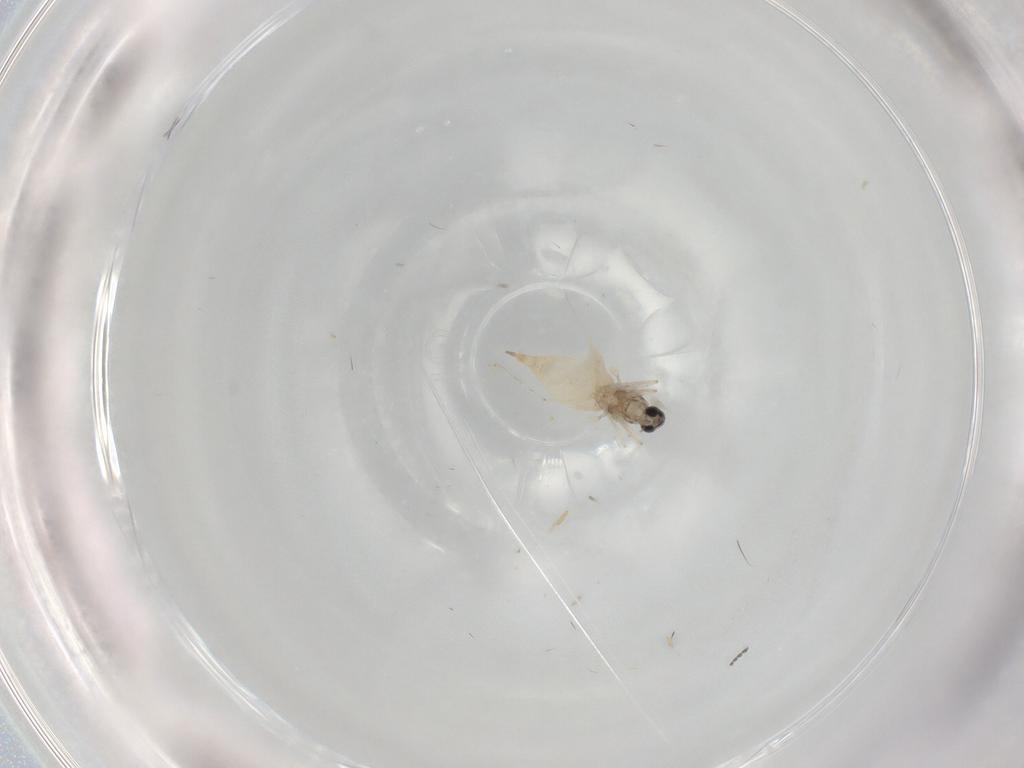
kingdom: Animalia
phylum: Arthropoda
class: Insecta
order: Diptera
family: Cecidomyiidae
